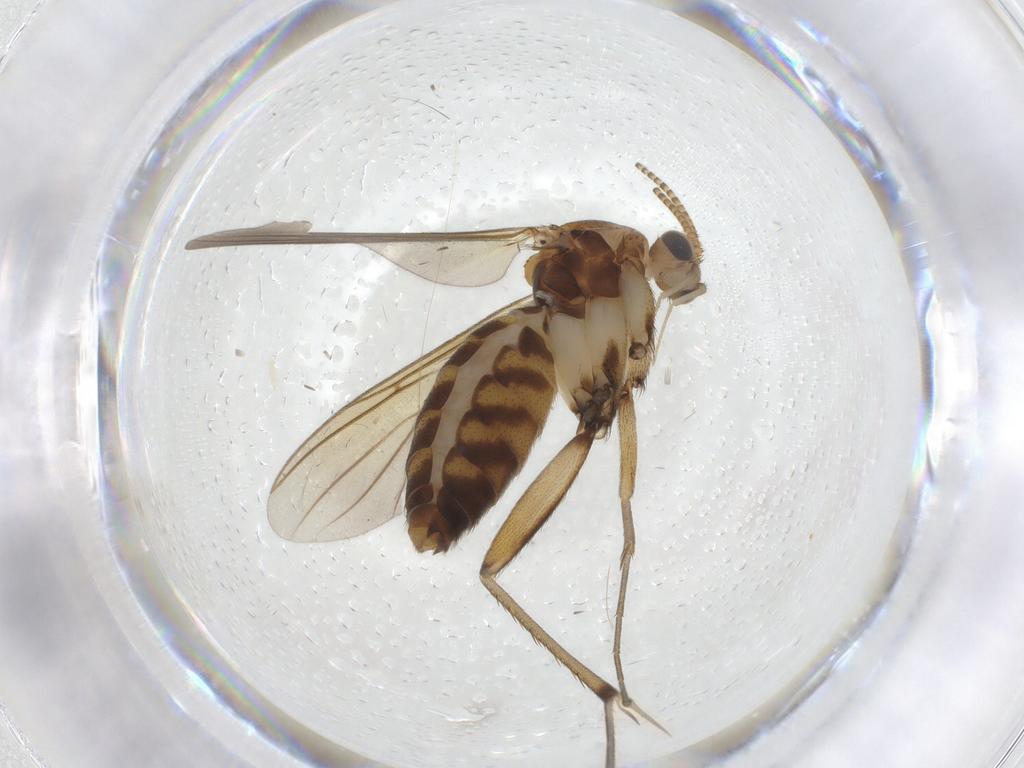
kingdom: Animalia
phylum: Arthropoda
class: Insecta
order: Diptera
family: Mycetophilidae
